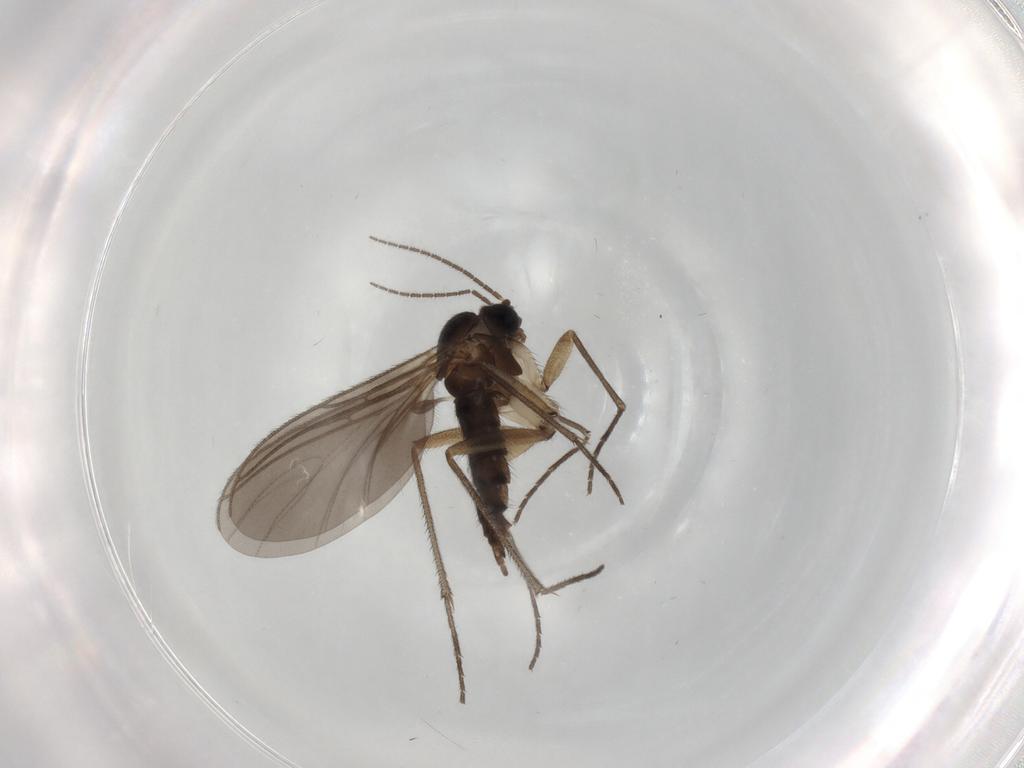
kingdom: Animalia
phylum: Arthropoda
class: Insecta
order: Diptera
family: Sciaridae
